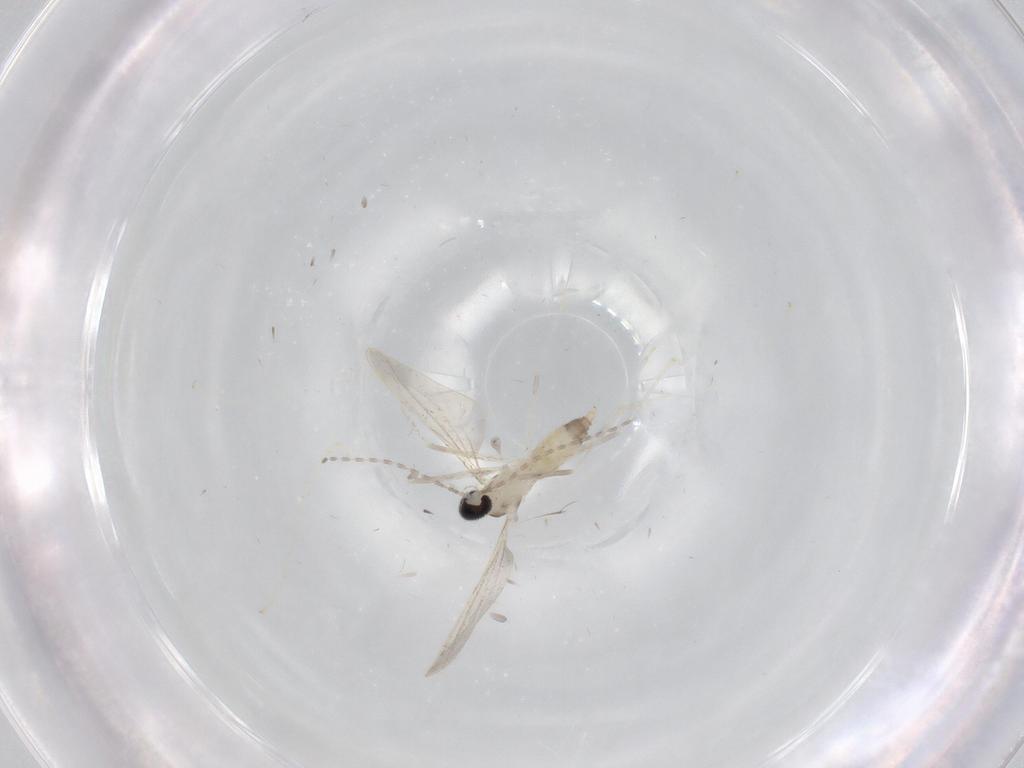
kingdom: Animalia
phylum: Arthropoda
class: Insecta
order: Diptera
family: Cecidomyiidae
